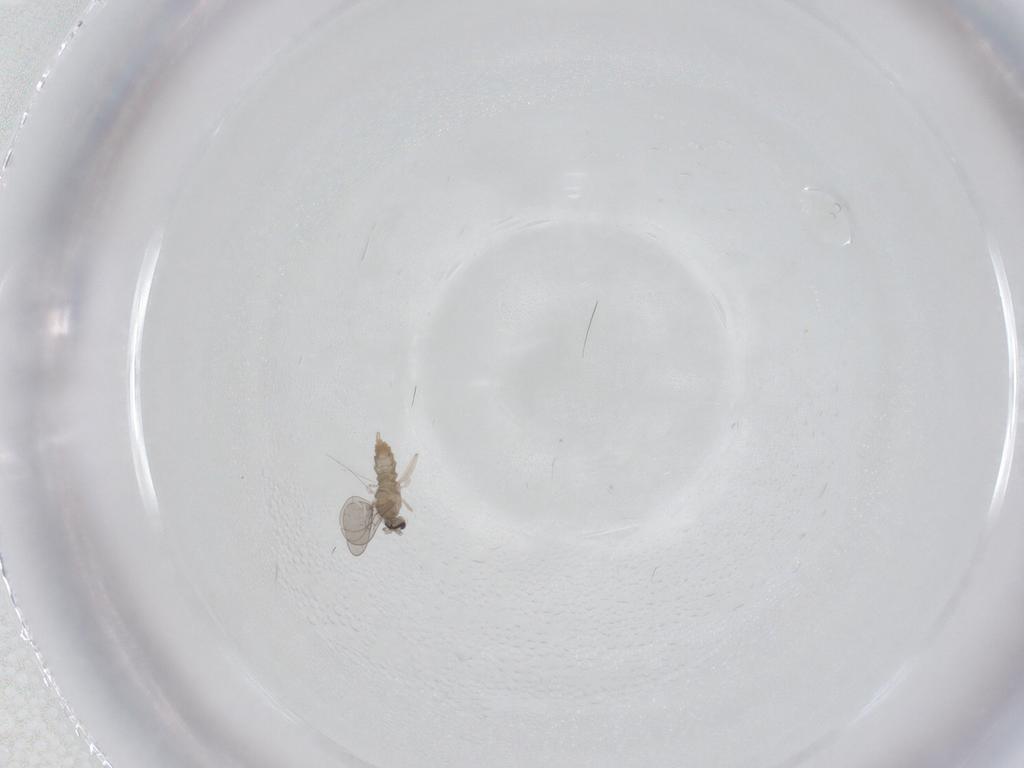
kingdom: Animalia
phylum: Arthropoda
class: Insecta
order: Diptera
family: Cecidomyiidae
